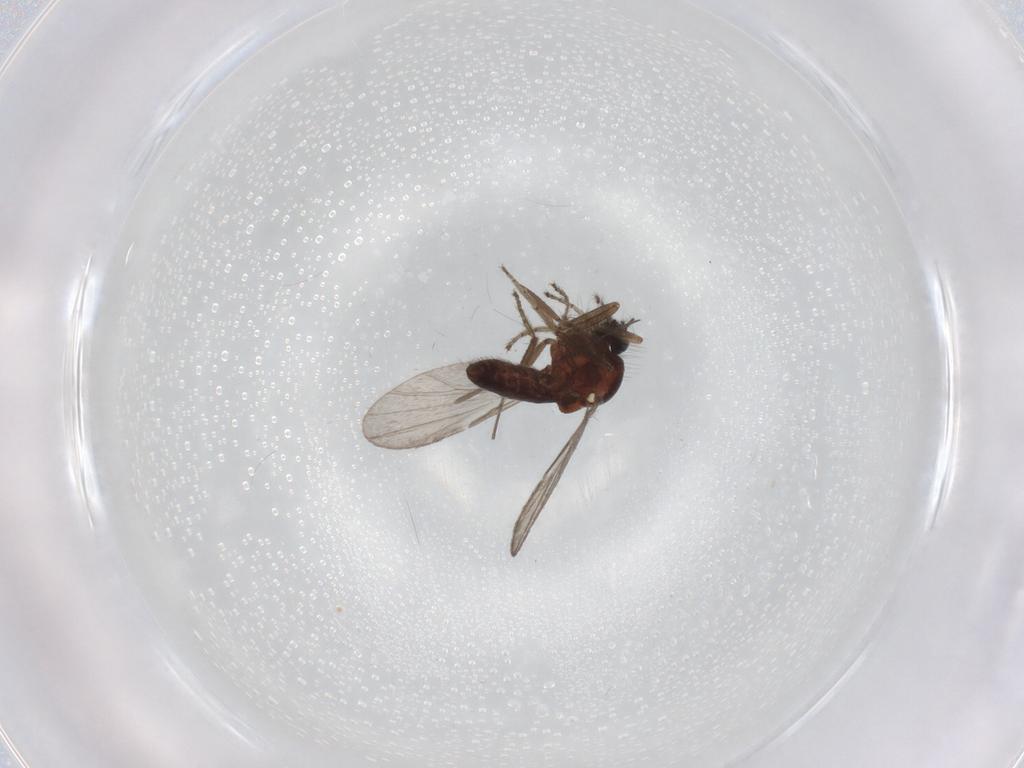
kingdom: Animalia
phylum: Arthropoda
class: Insecta
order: Diptera
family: Ceratopogonidae
